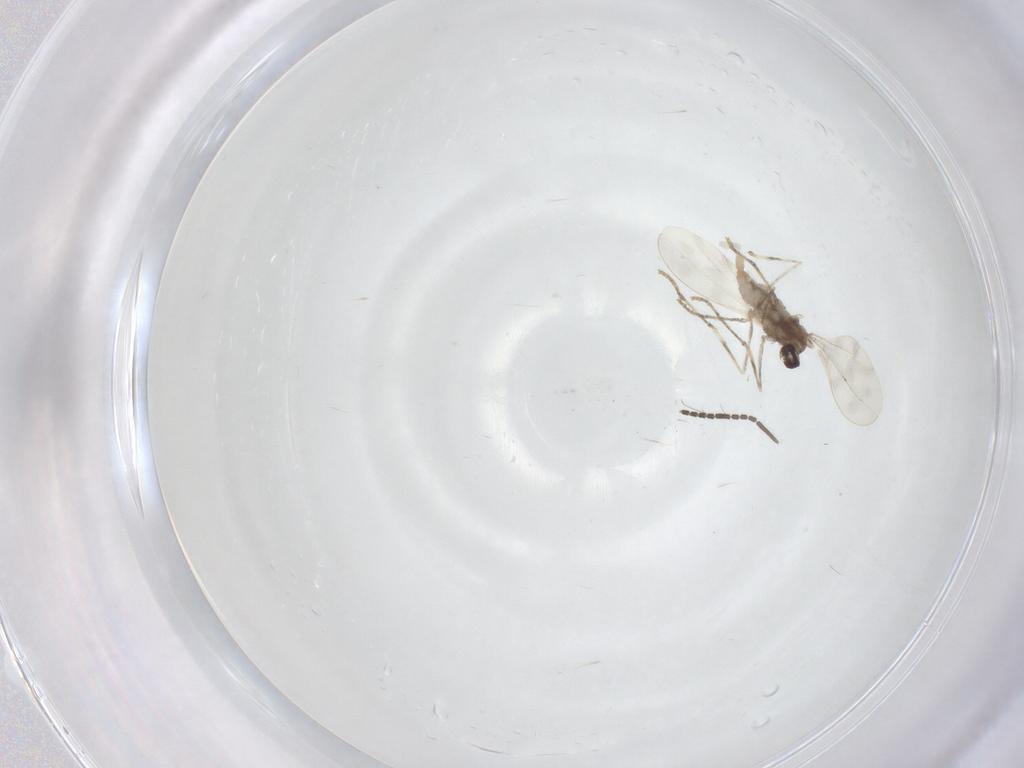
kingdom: Animalia
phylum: Arthropoda
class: Insecta
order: Diptera
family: Cecidomyiidae
